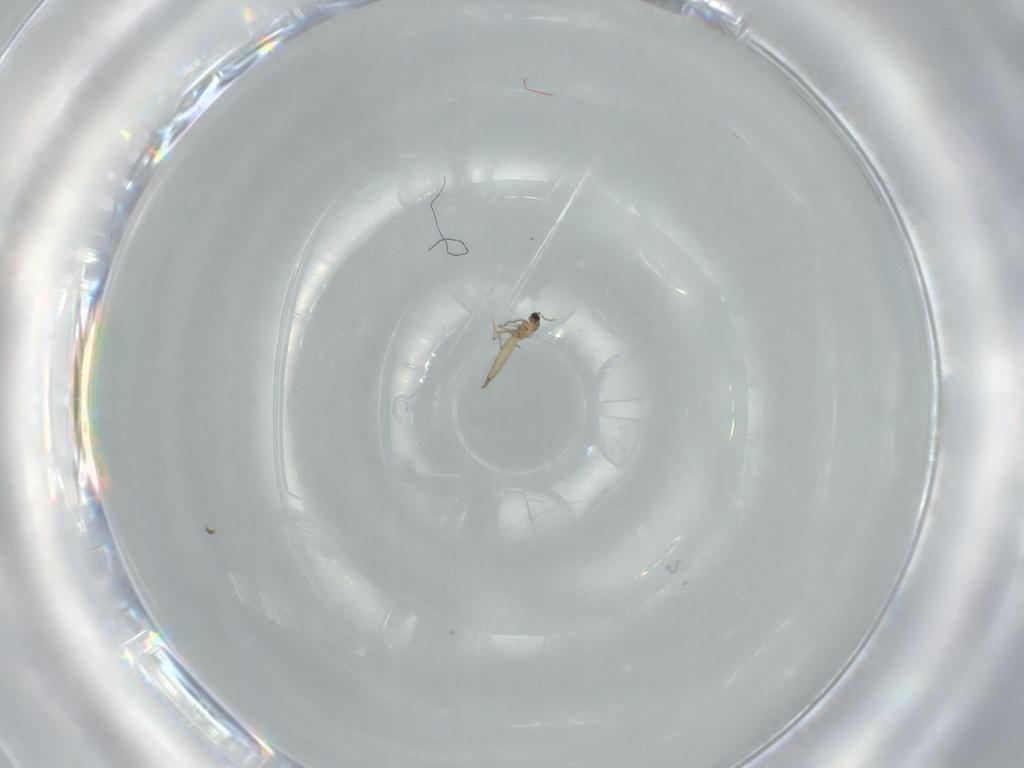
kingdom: Animalia
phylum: Arthropoda
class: Insecta
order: Diptera
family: Cecidomyiidae
